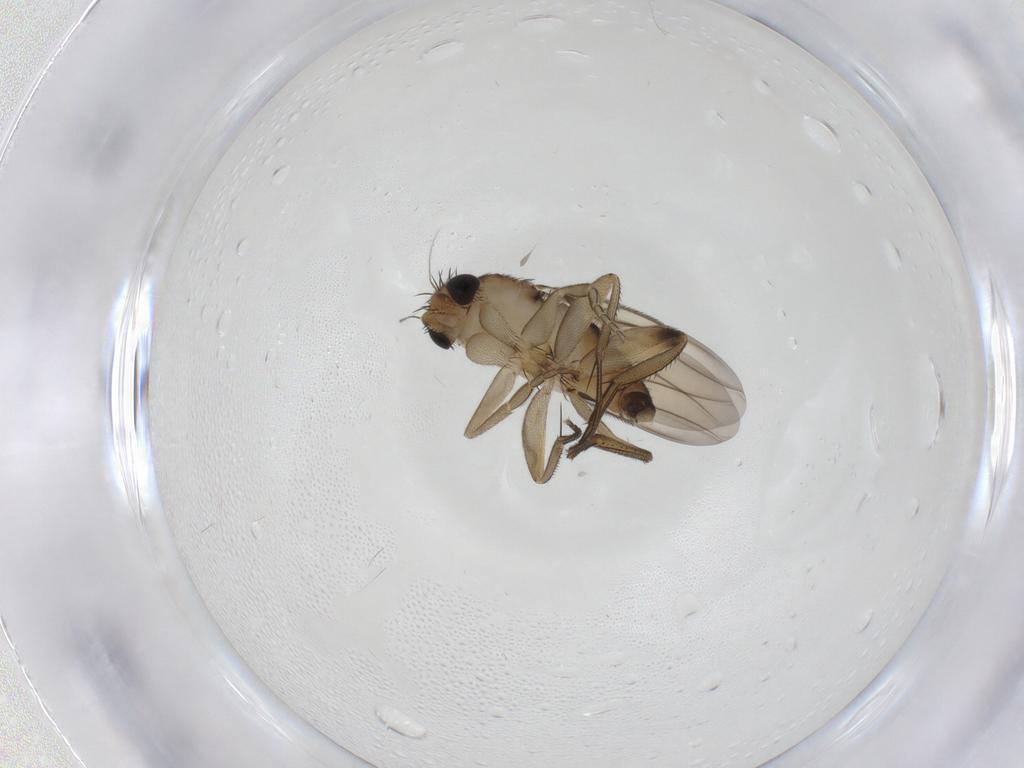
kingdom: Animalia
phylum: Arthropoda
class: Insecta
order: Diptera
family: Phoridae
